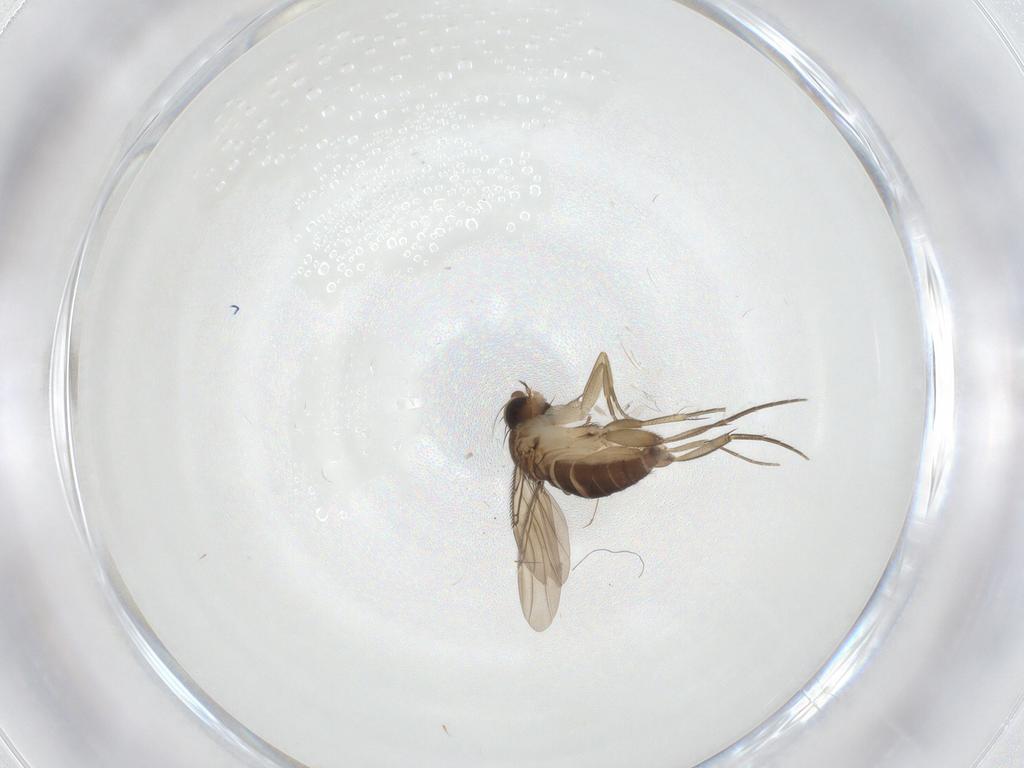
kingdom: Animalia
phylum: Arthropoda
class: Insecta
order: Diptera
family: Phoridae
